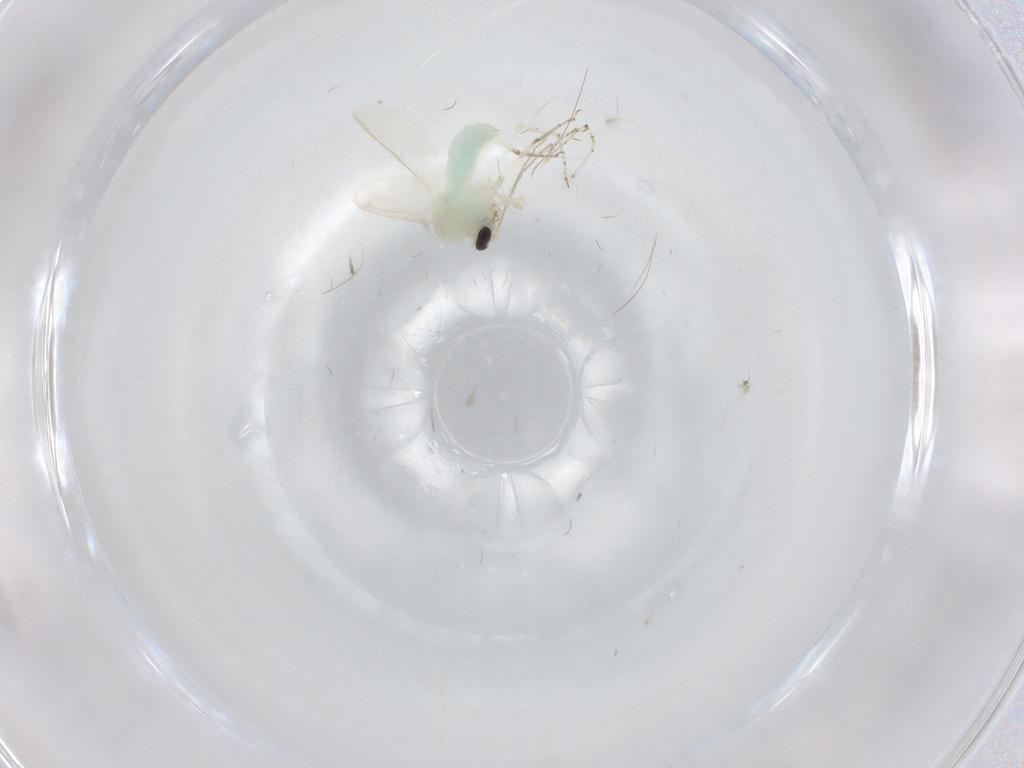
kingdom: Animalia
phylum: Arthropoda
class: Insecta
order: Diptera
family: Ceratopogonidae
